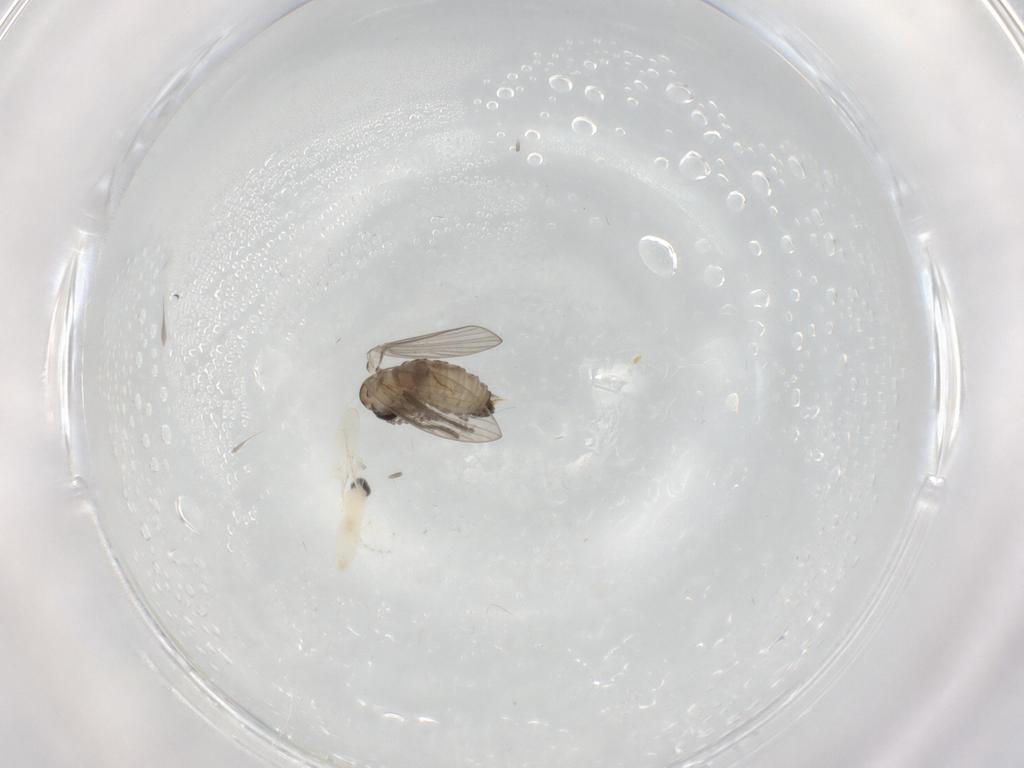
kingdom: Animalia
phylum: Arthropoda
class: Insecta
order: Diptera
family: Psychodidae
